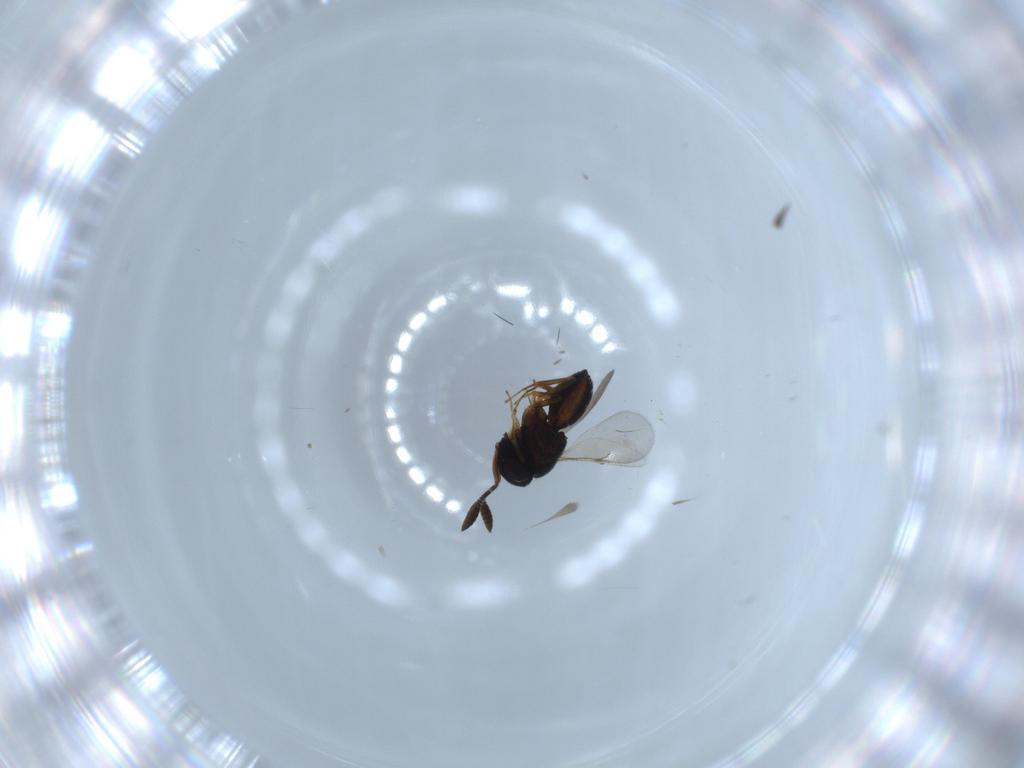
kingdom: Animalia
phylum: Arthropoda
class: Insecta
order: Hymenoptera
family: Scelionidae
